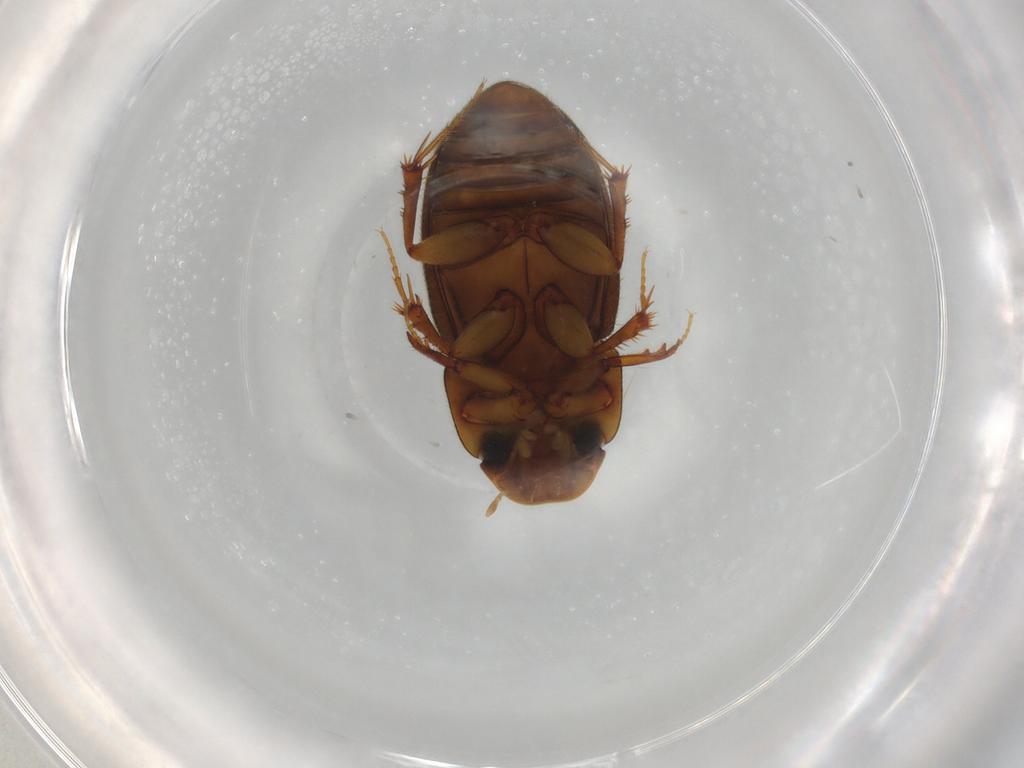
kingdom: Animalia
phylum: Arthropoda
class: Insecta
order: Coleoptera
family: Scarabaeidae
